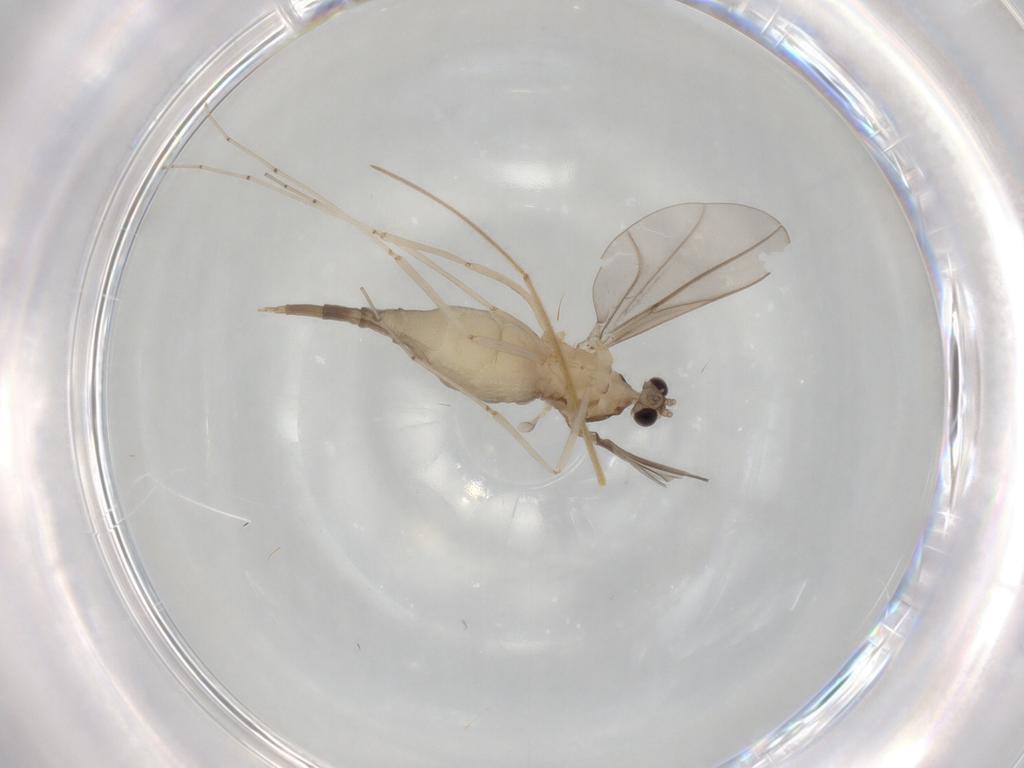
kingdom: Animalia
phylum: Arthropoda
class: Insecta
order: Diptera
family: Cecidomyiidae
